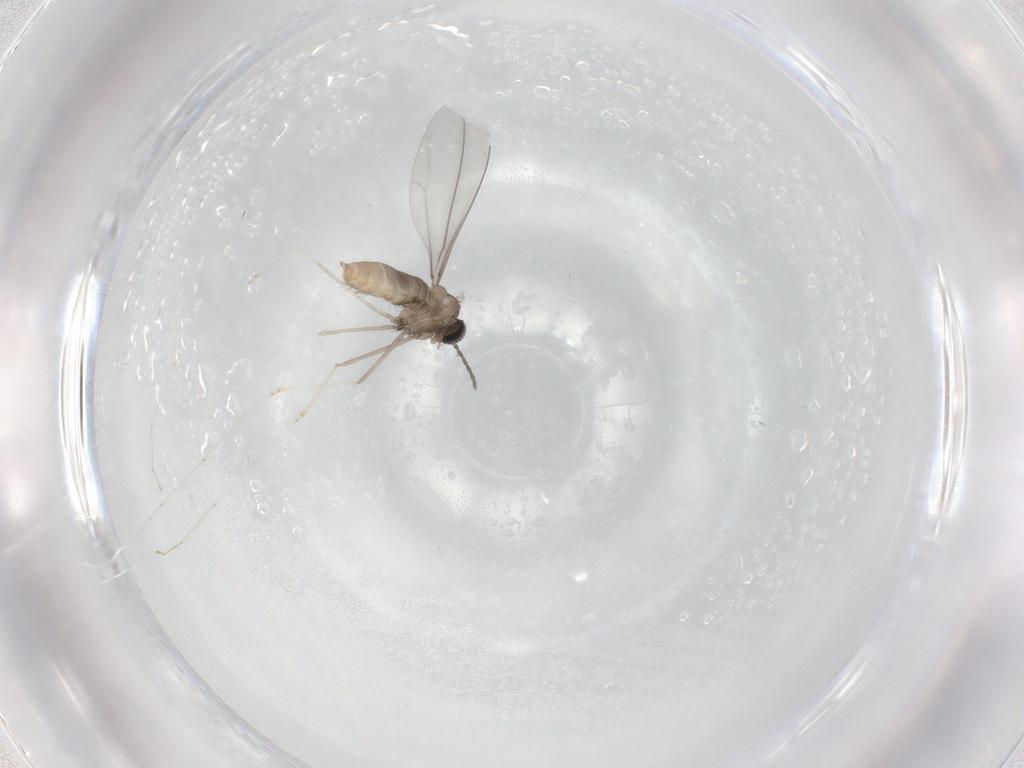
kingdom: Animalia
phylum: Arthropoda
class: Insecta
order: Diptera
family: Cecidomyiidae
